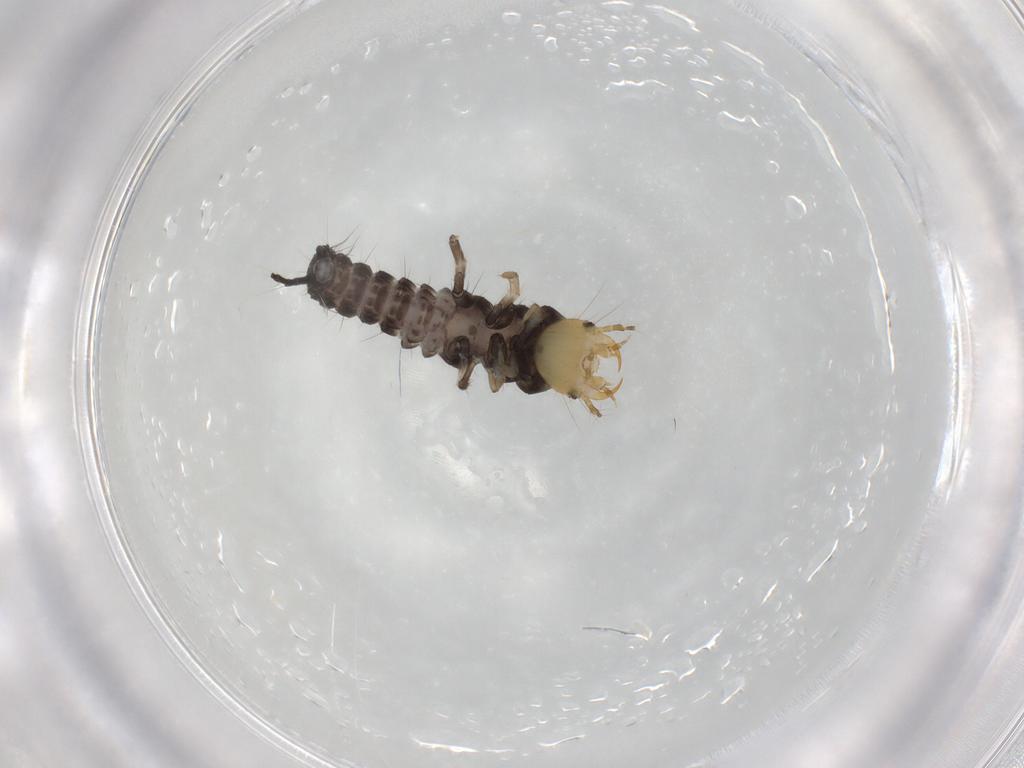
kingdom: Animalia
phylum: Arthropoda
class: Insecta
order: Coleoptera
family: Carabidae
